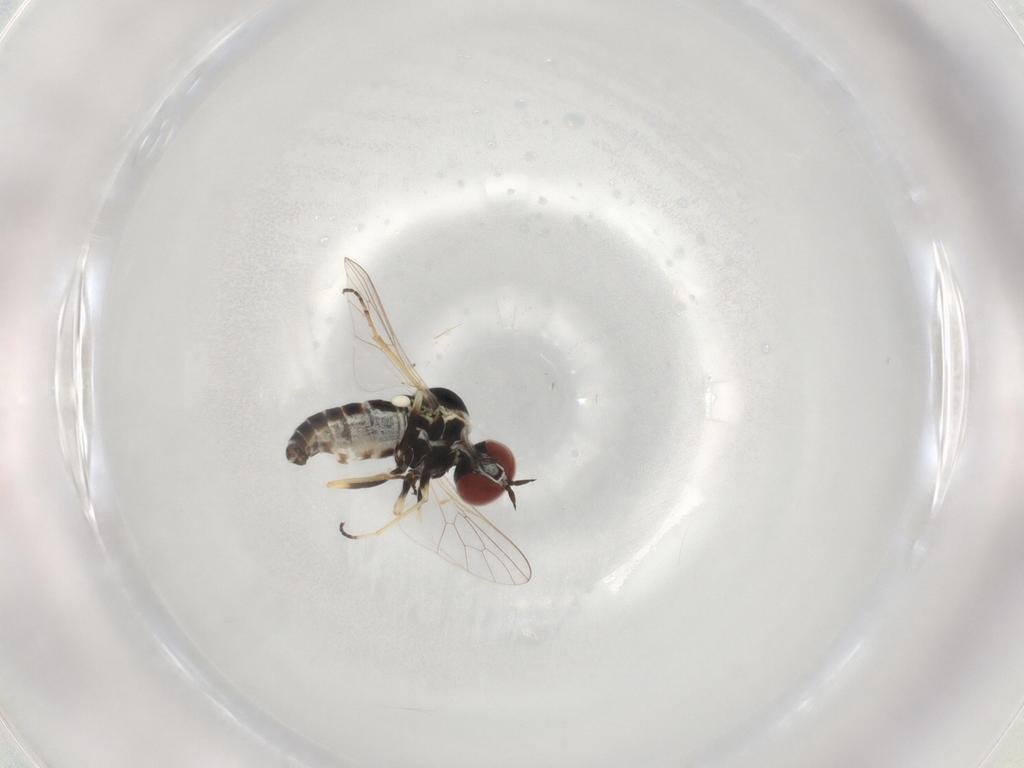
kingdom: Animalia
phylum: Arthropoda
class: Insecta
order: Diptera
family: Mythicomyiidae
